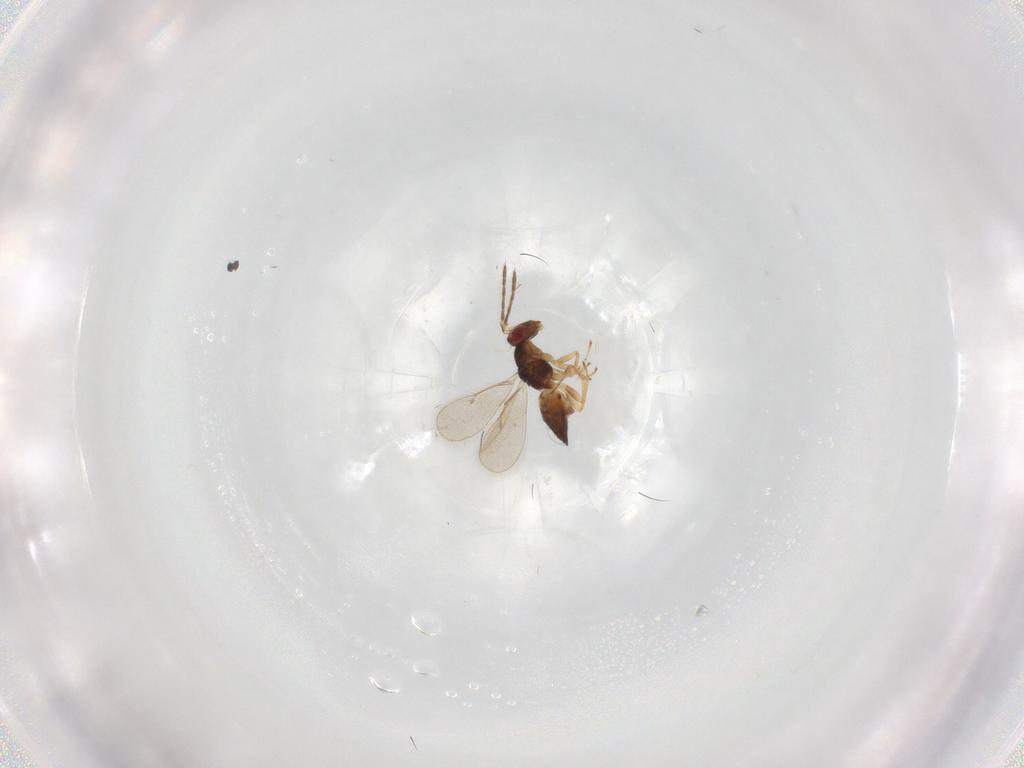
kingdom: Animalia
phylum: Arthropoda
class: Insecta
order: Hymenoptera
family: Eulophidae
